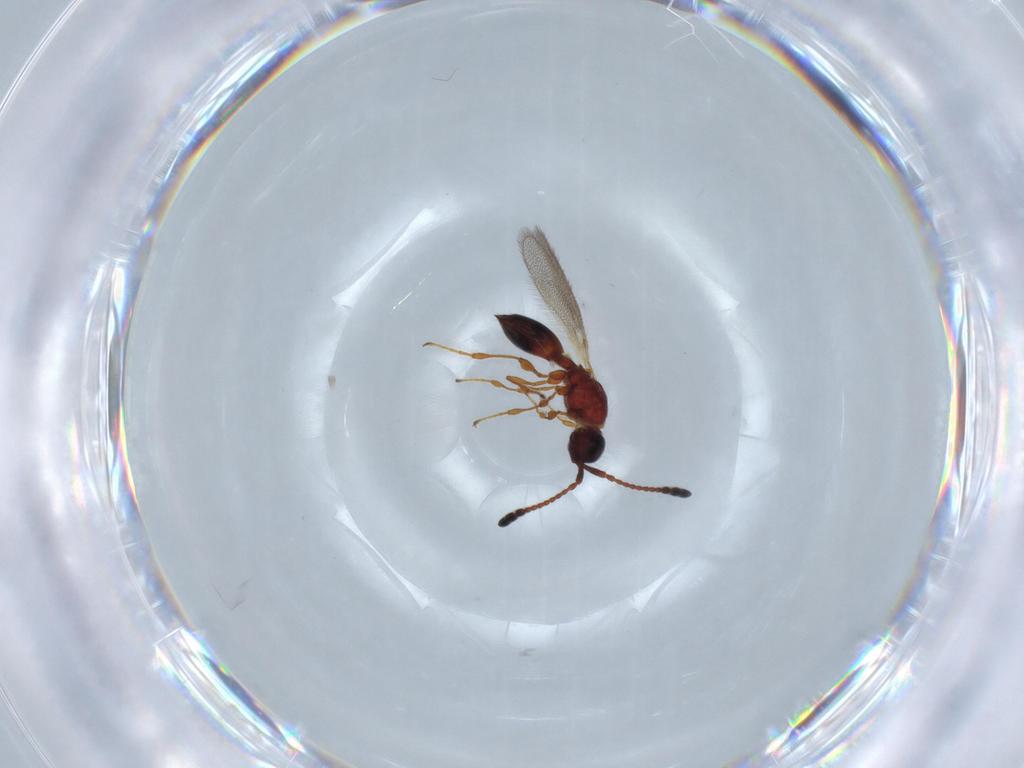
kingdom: Animalia
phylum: Arthropoda
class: Insecta
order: Hymenoptera
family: Diapriidae
